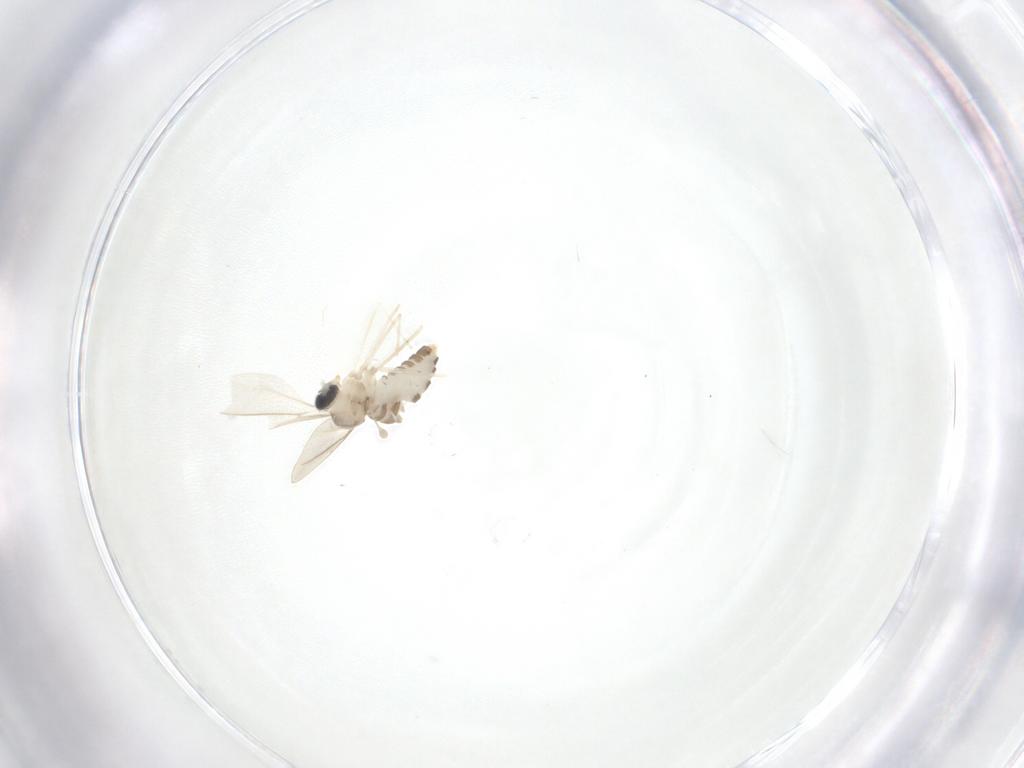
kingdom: Animalia
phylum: Arthropoda
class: Insecta
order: Diptera
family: Cecidomyiidae
